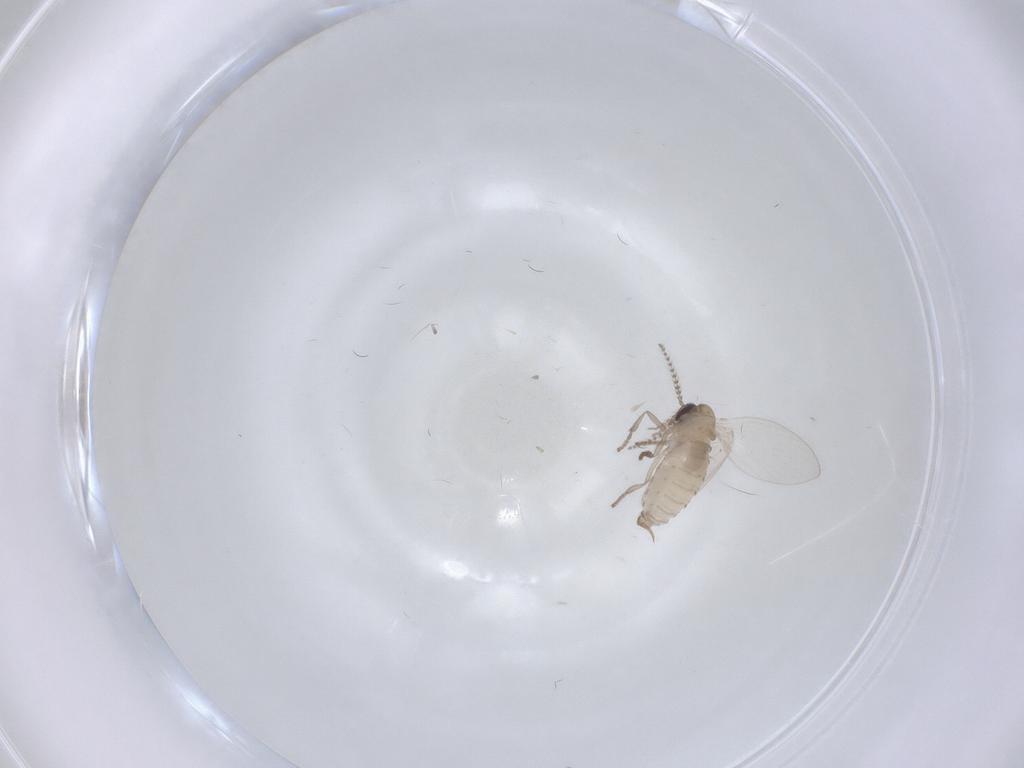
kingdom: Animalia
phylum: Arthropoda
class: Insecta
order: Diptera
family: Psychodidae
